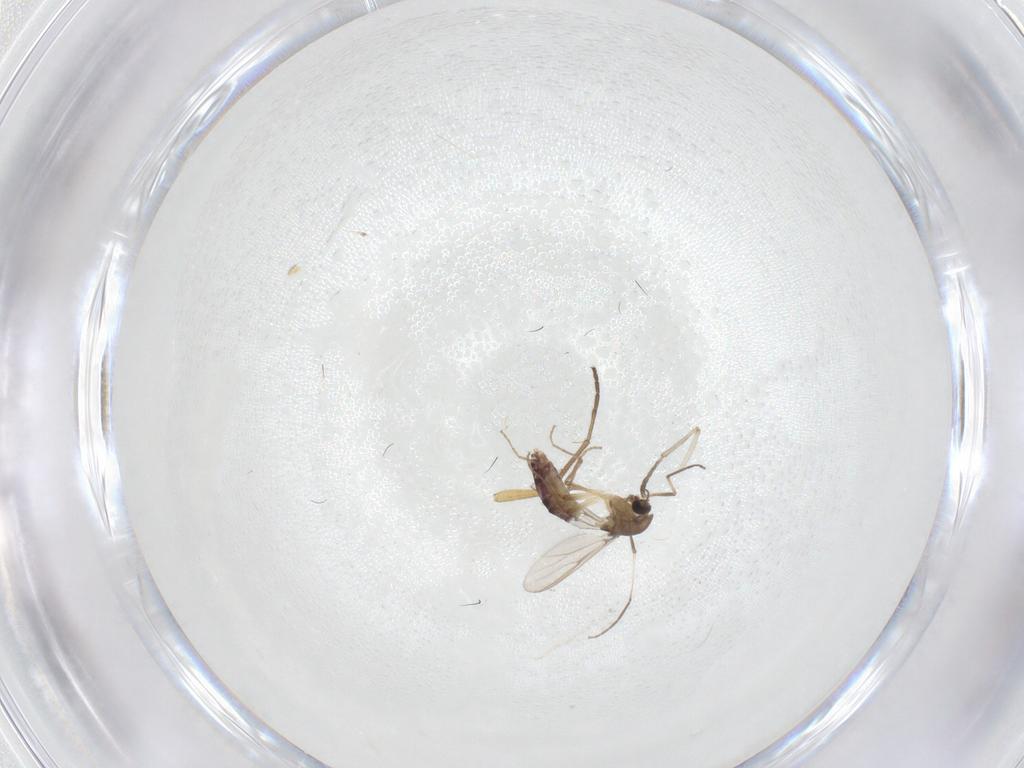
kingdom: Animalia
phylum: Arthropoda
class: Insecta
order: Diptera
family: Chironomidae
